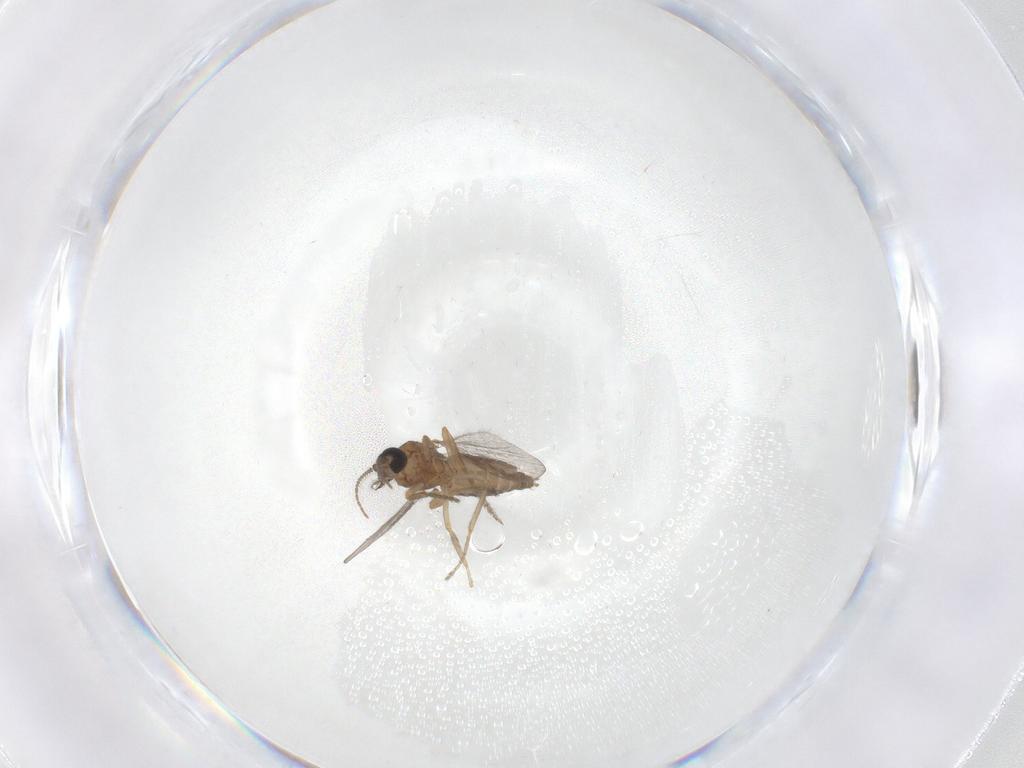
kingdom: Animalia
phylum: Arthropoda
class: Insecta
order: Diptera
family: Ceratopogonidae
